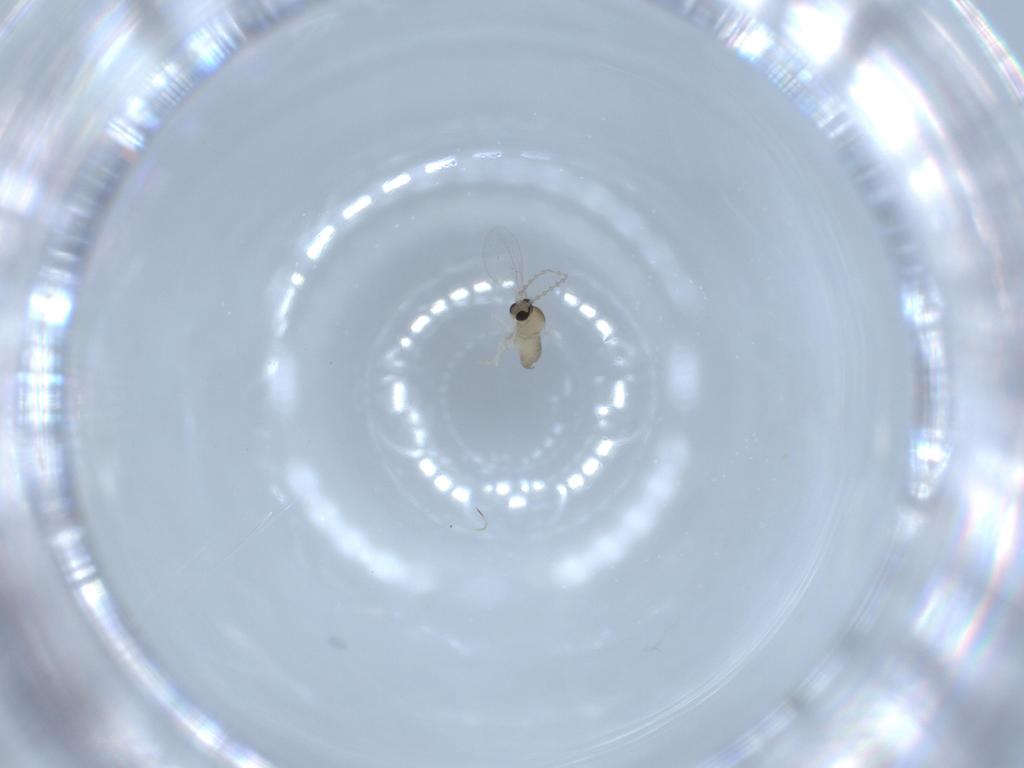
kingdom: Animalia
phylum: Arthropoda
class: Insecta
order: Diptera
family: Cecidomyiidae
